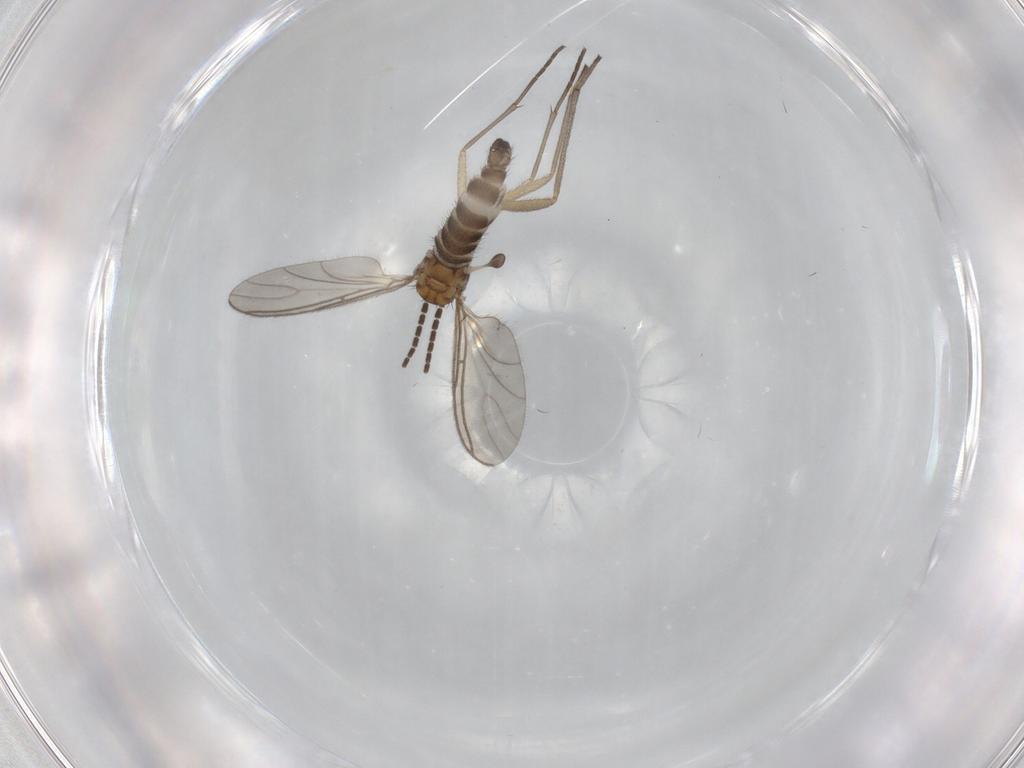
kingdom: Animalia
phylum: Arthropoda
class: Insecta
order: Diptera
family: Sciaridae
